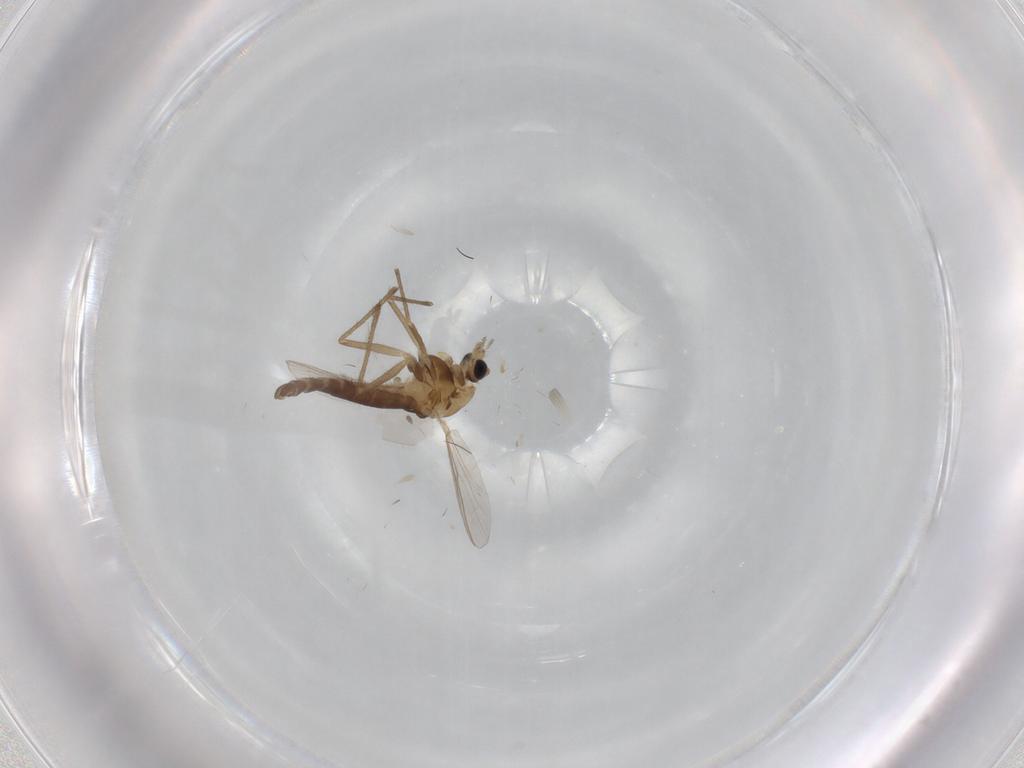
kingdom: Animalia
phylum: Arthropoda
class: Insecta
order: Diptera
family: Chironomidae
